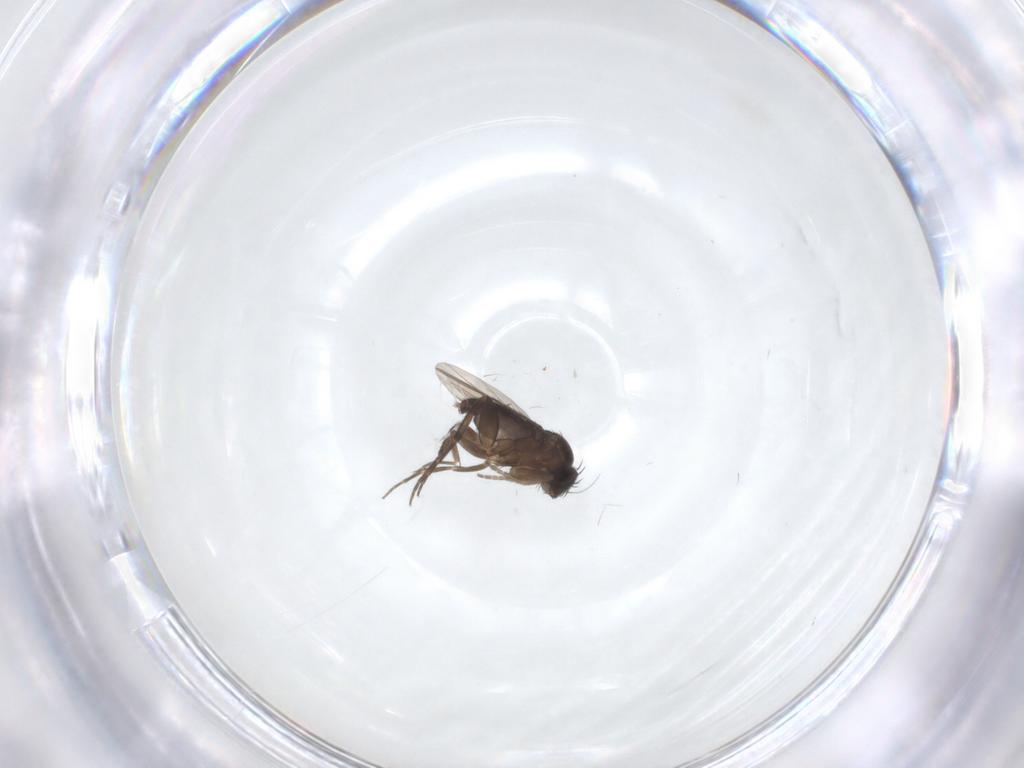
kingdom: Animalia
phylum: Arthropoda
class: Insecta
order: Diptera
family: Phoridae
